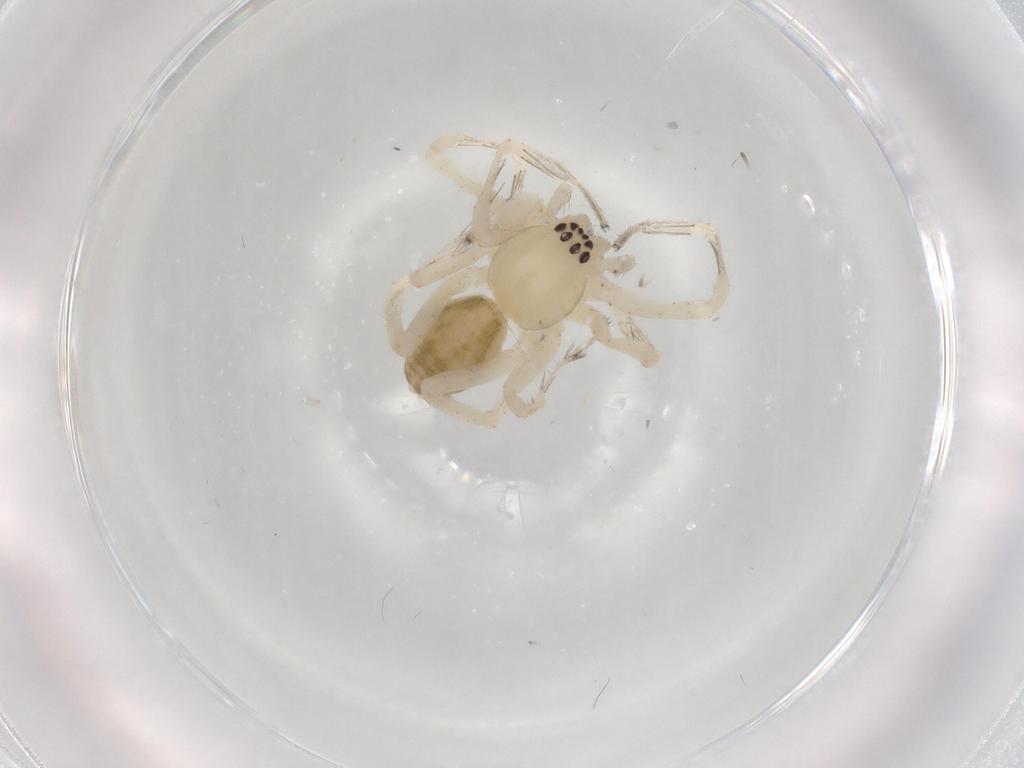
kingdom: Animalia
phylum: Arthropoda
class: Arachnida
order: Araneae
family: Anyphaenidae
